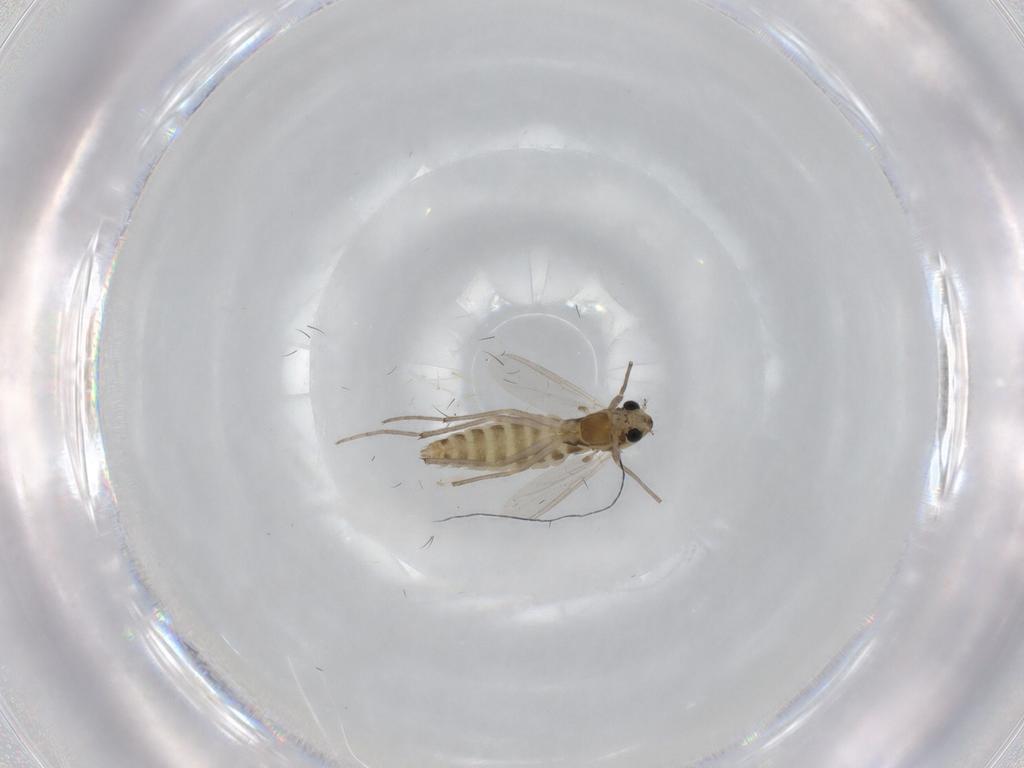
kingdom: Animalia
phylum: Arthropoda
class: Insecta
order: Diptera
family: Chironomidae
